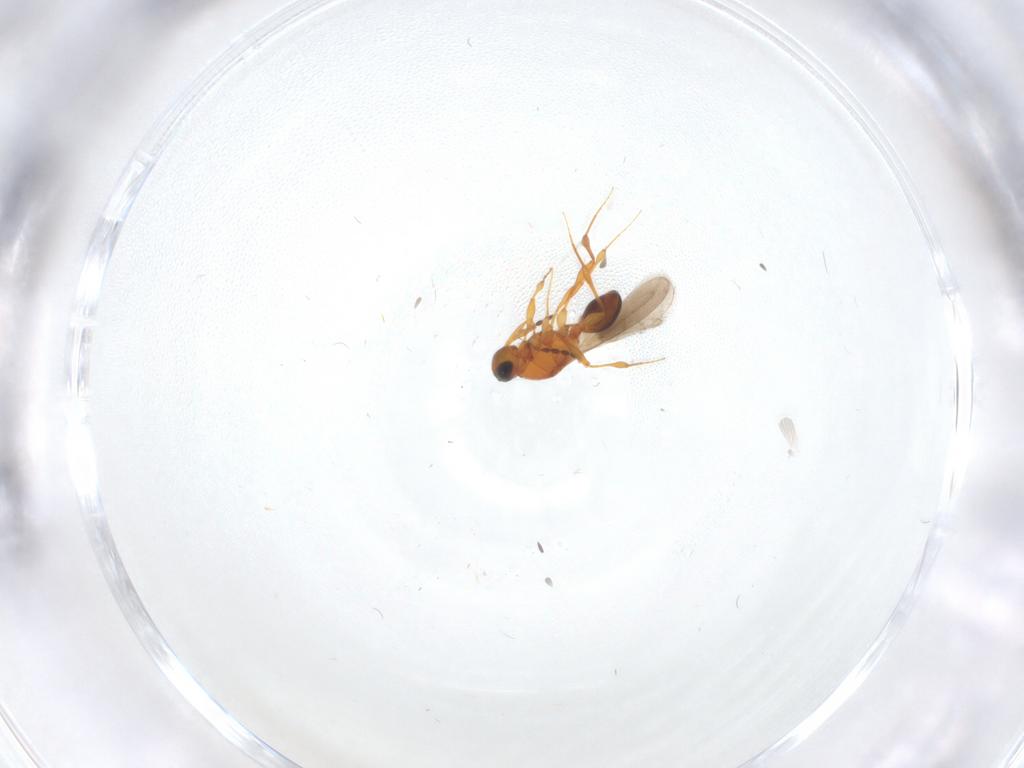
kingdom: Animalia
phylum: Arthropoda
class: Insecta
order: Hymenoptera
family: Platygastridae
